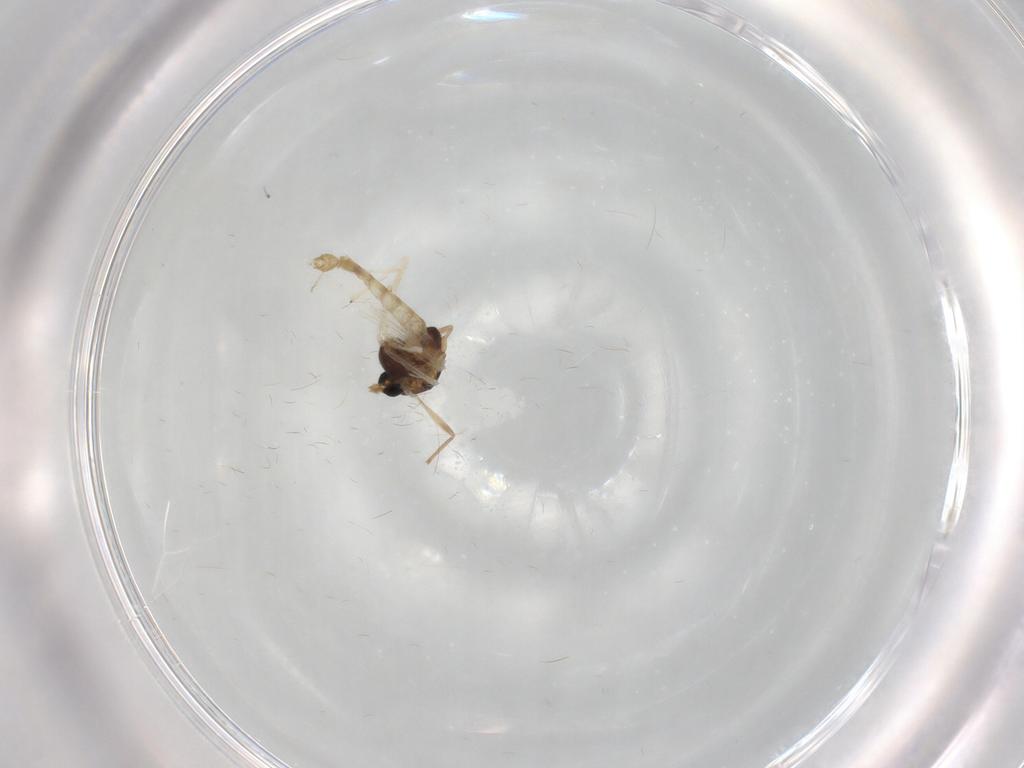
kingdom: Animalia
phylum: Arthropoda
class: Insecta
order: Diptera
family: Chironomidae
